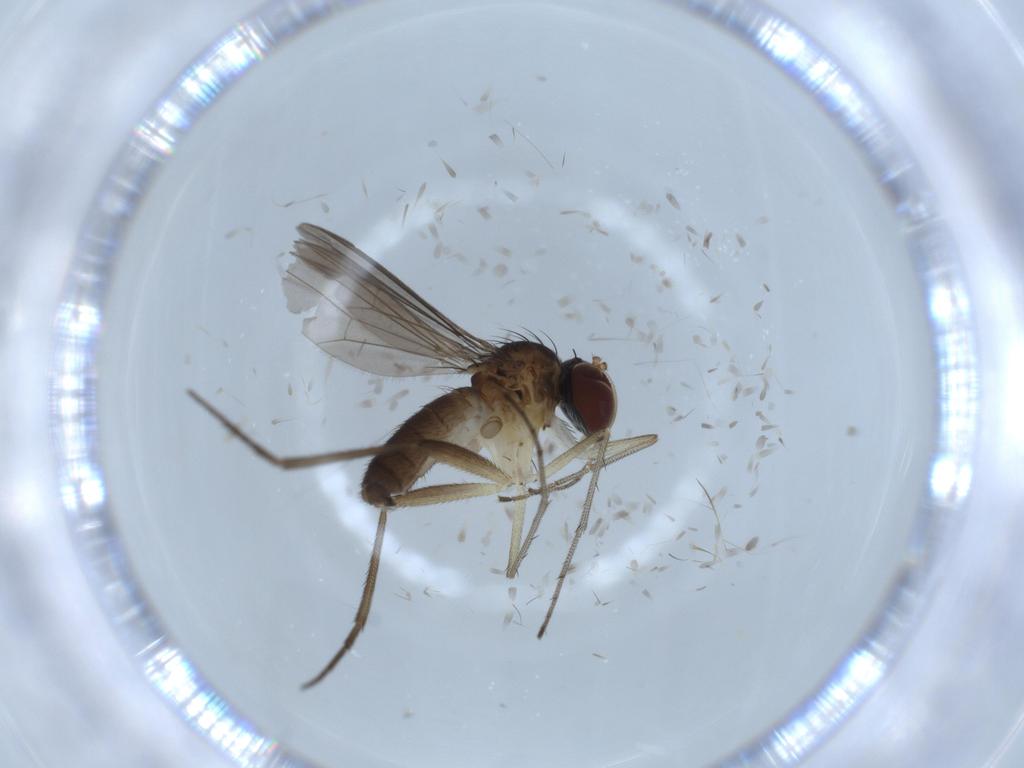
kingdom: Animalia
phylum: Arthropoda
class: Insecta
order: Diptera
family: Dolichopodidae
